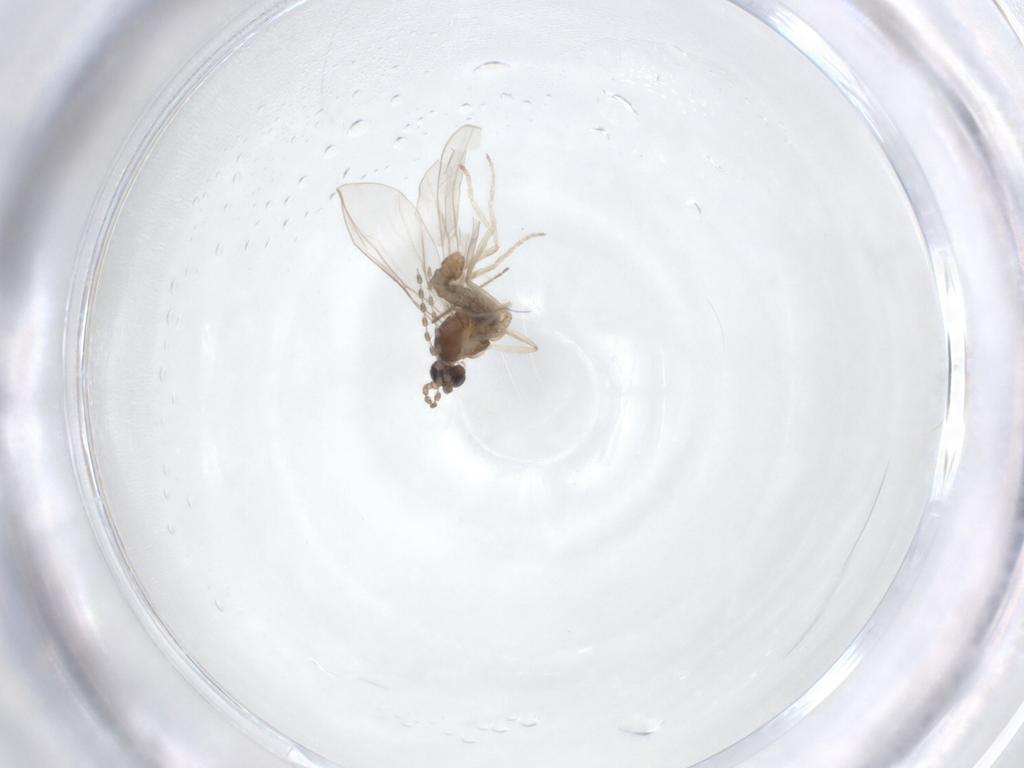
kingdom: Animalia
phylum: Arthropoda
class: Insecta
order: Diptera
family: Cecidomyiidae
